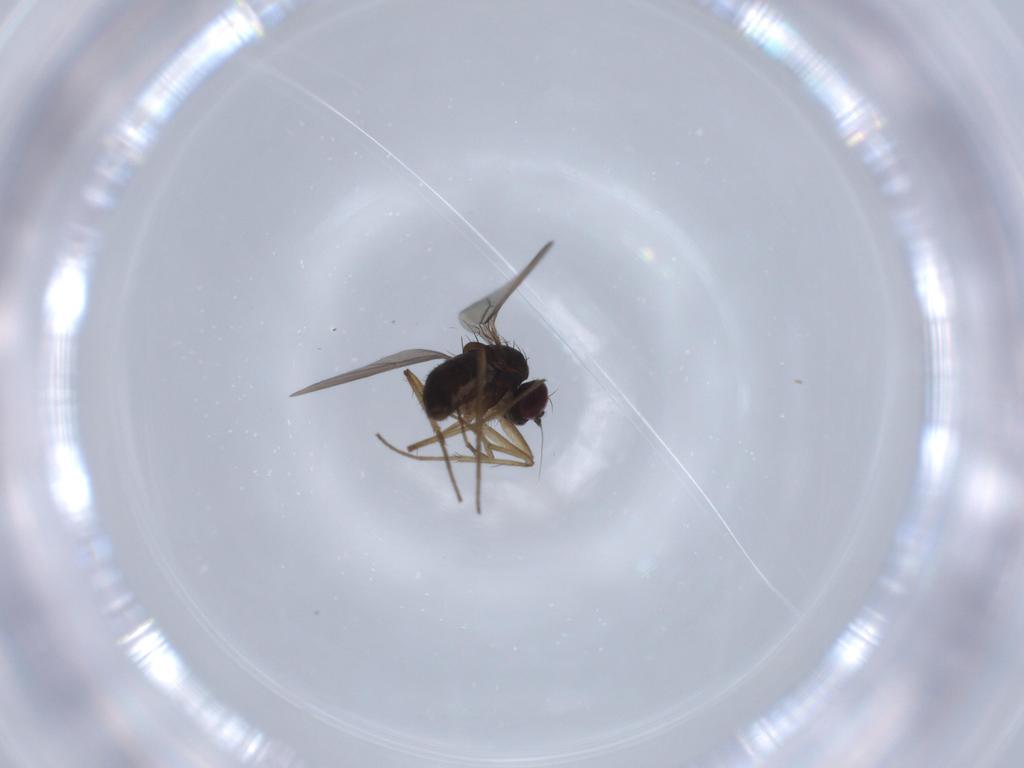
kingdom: Animalia
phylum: Arthropoda
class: Insecta
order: Diptera
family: Dolichopodidae
